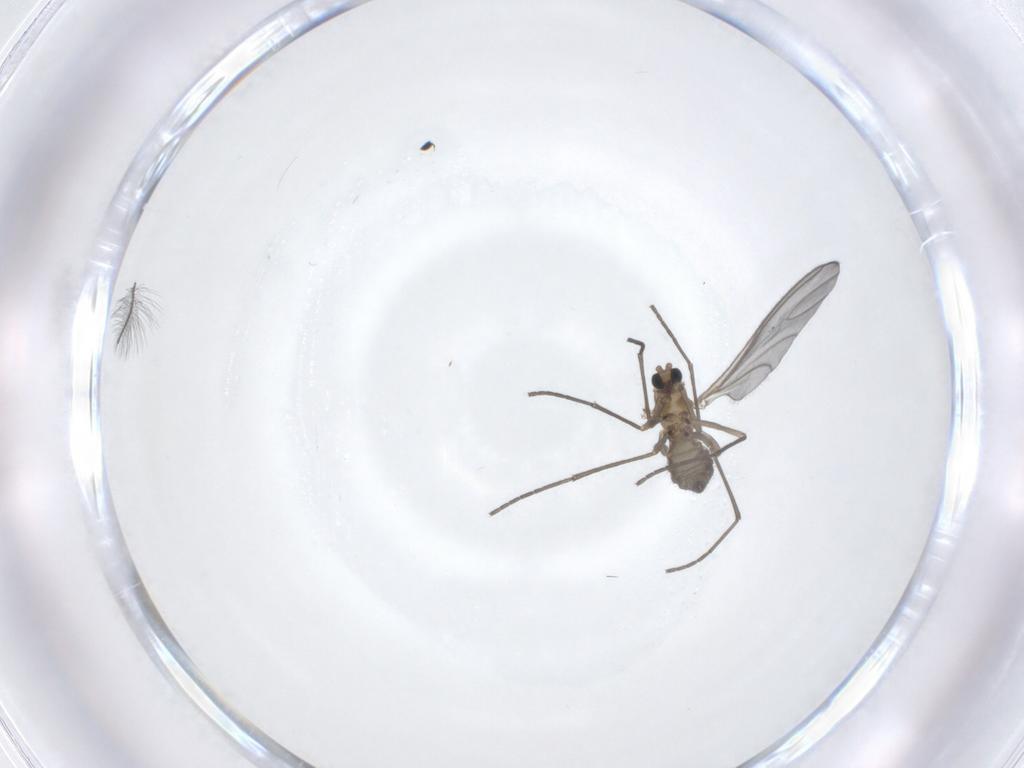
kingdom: Animalia
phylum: Arthropoda
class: Insecta
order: Diptera
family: Sciaridae
